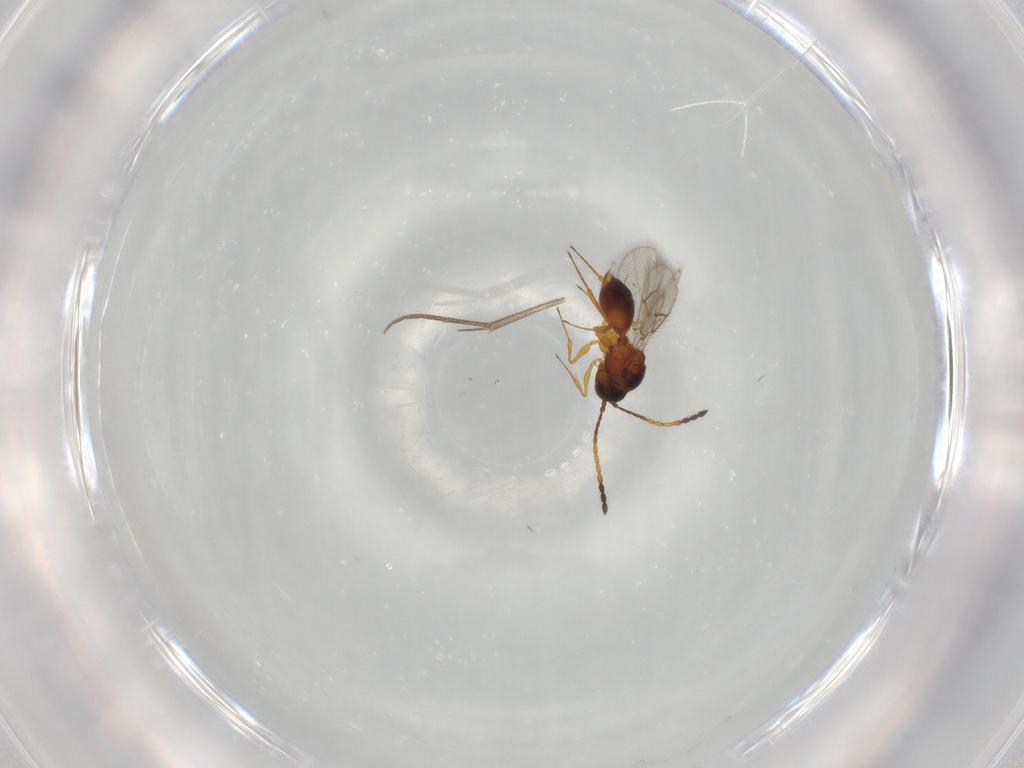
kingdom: Animalia
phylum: Arthropoda
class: Insecta
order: Hymenoptera
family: Figitidae
